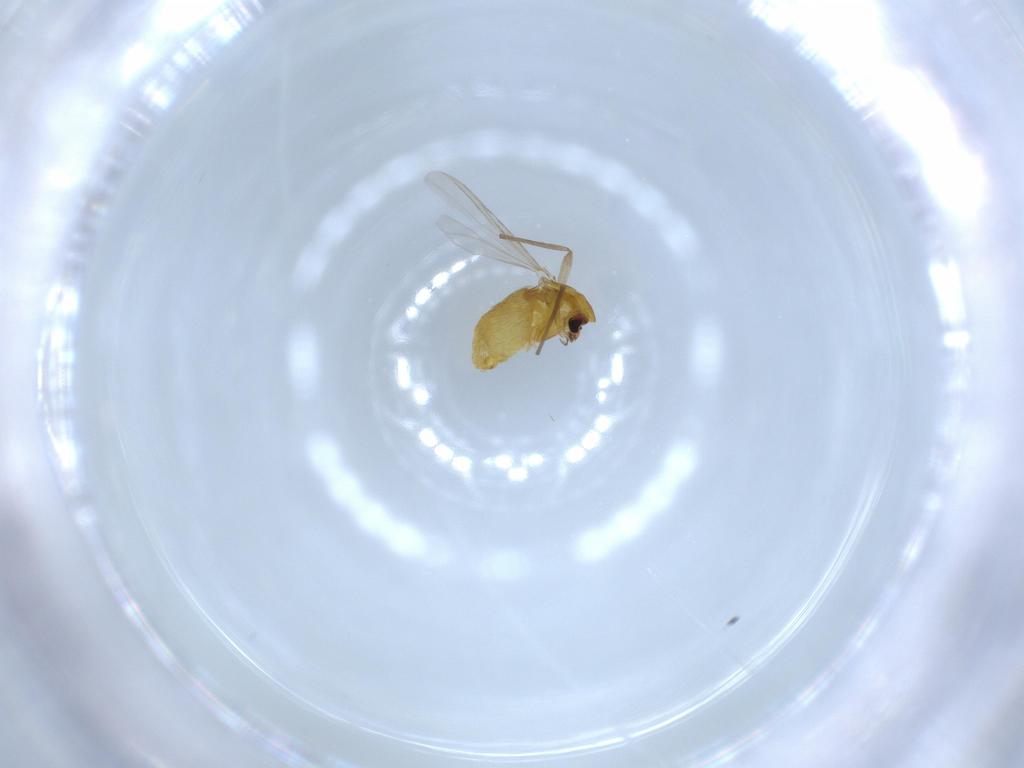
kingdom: Animalia
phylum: Arthropoda
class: Insecta
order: Diptera
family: Chironomidae
